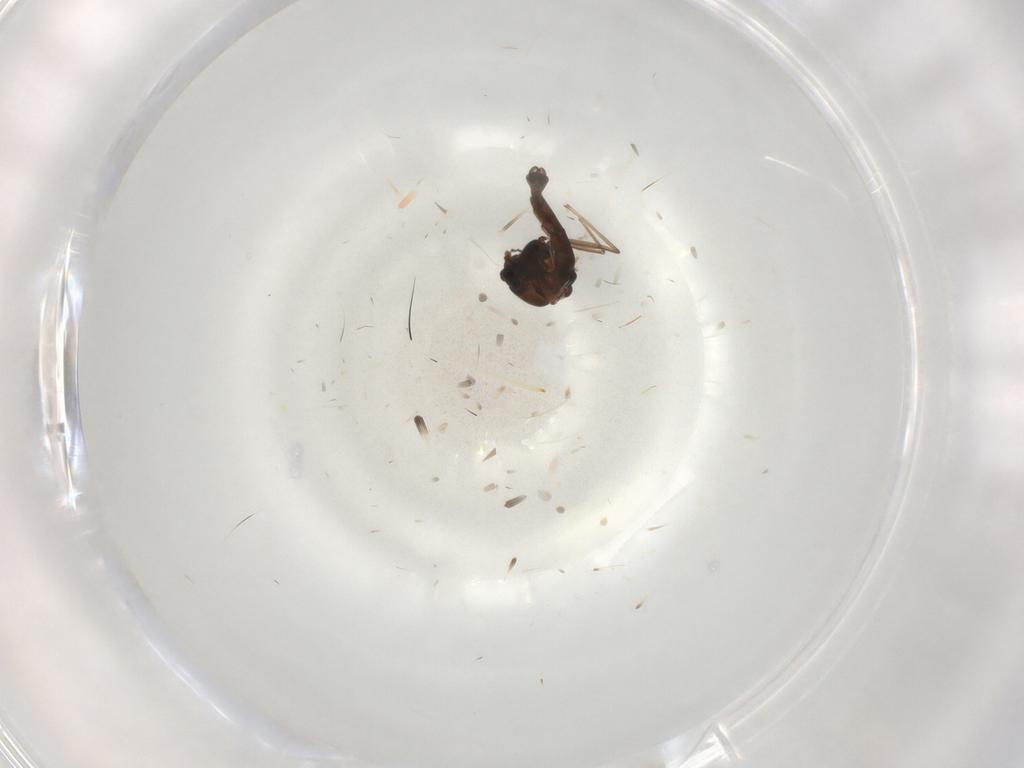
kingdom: Animalia
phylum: Arthropoda
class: Insecta
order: Diptera
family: Chironomidae
